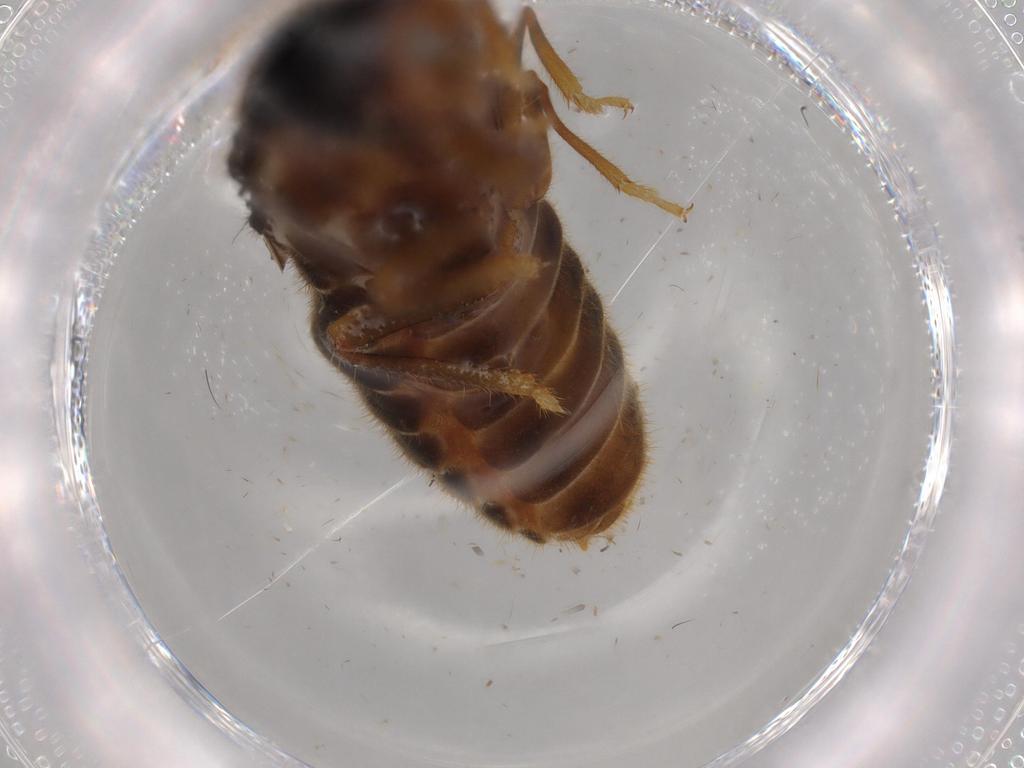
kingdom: Animalia
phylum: Arthropoda
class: Insecta
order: Blattodea
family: Termitidae
